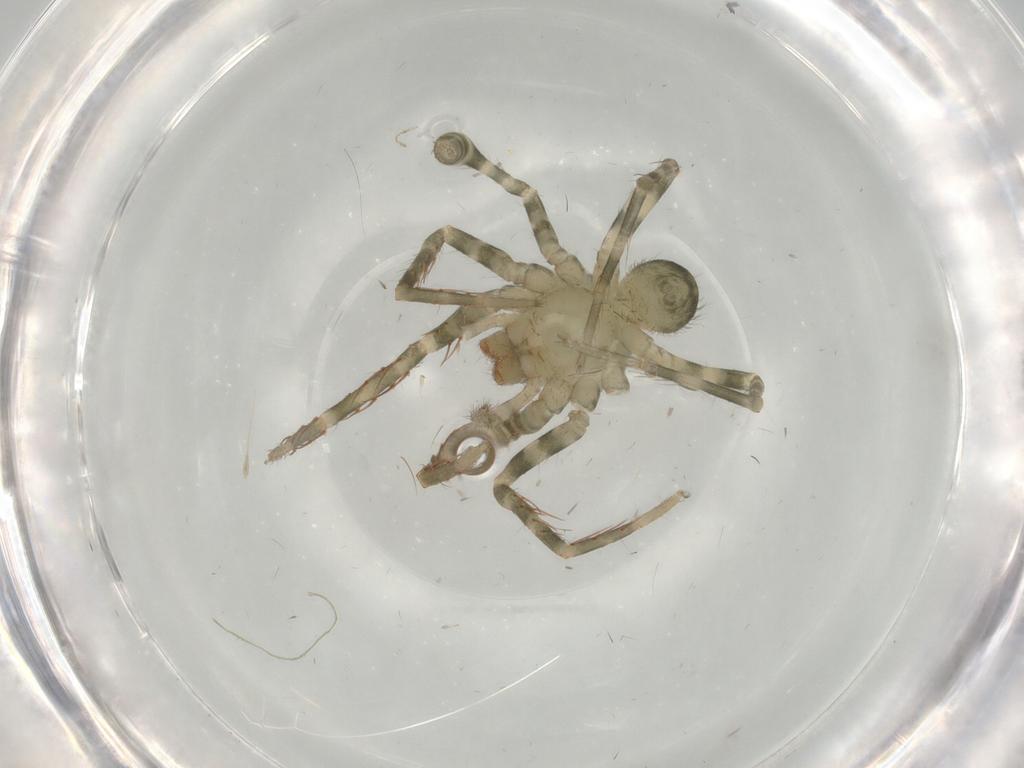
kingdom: Animalia
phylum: Arthropoda
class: Arachnida
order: Araneae
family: Ctenidae
